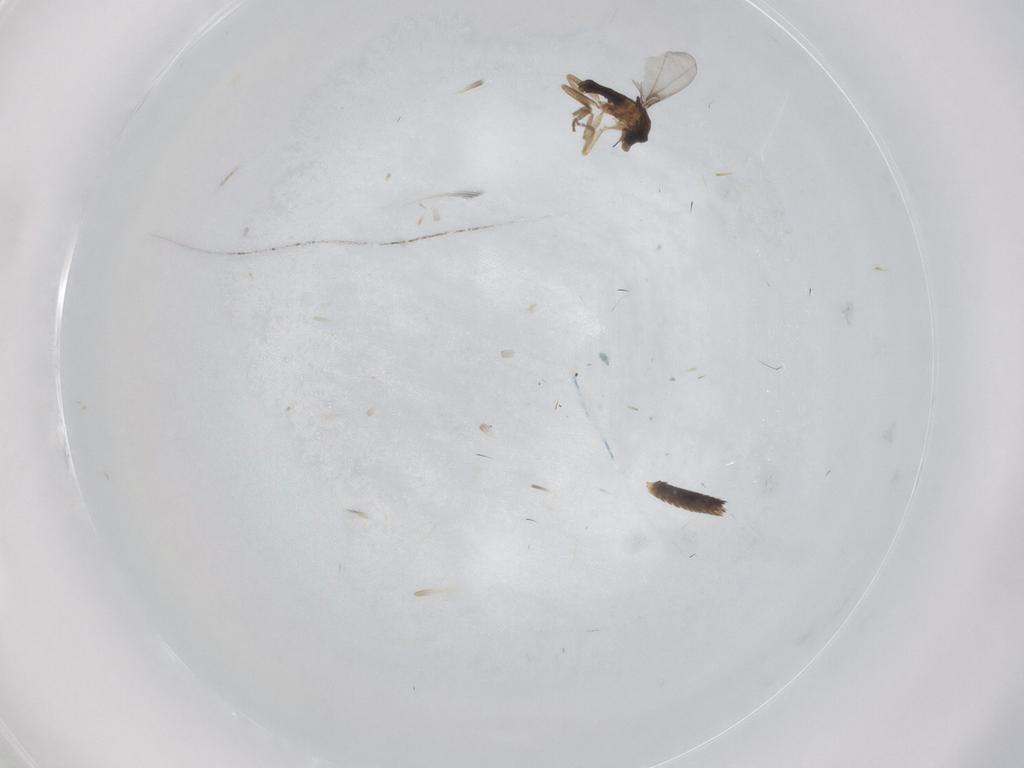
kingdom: Animalia
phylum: Arthropoda
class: Insecta
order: Diptera
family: Phoridae
